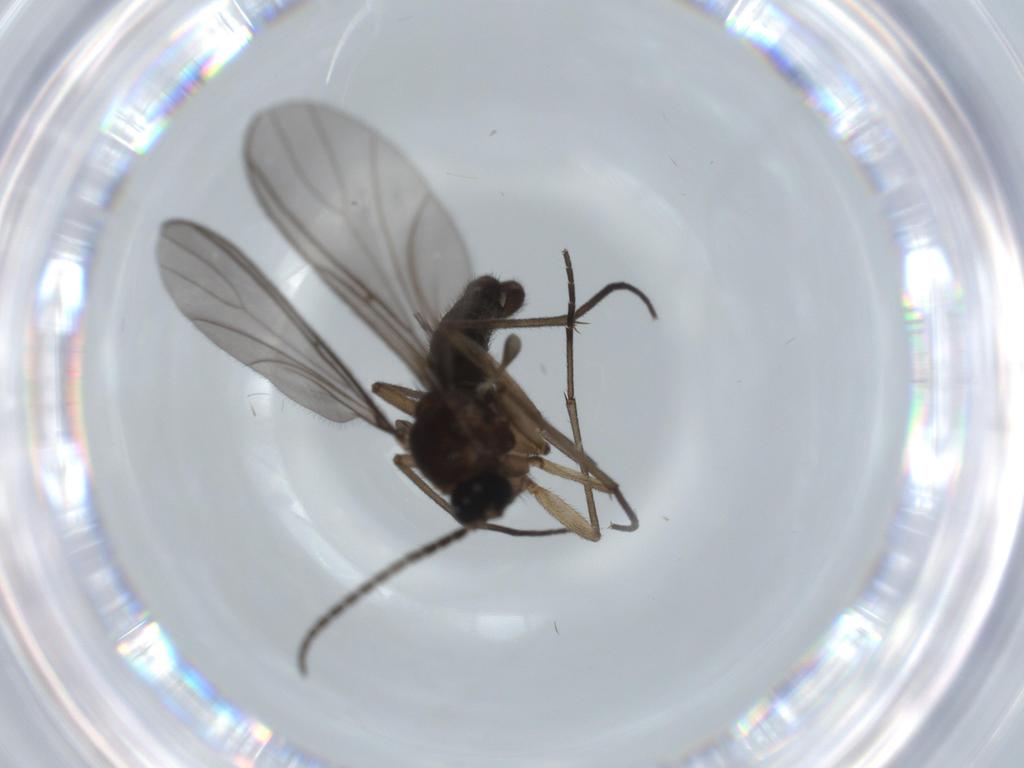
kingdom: Animalia
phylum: Arthropoda
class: Insecta
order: Diptera
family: Sciaridae
